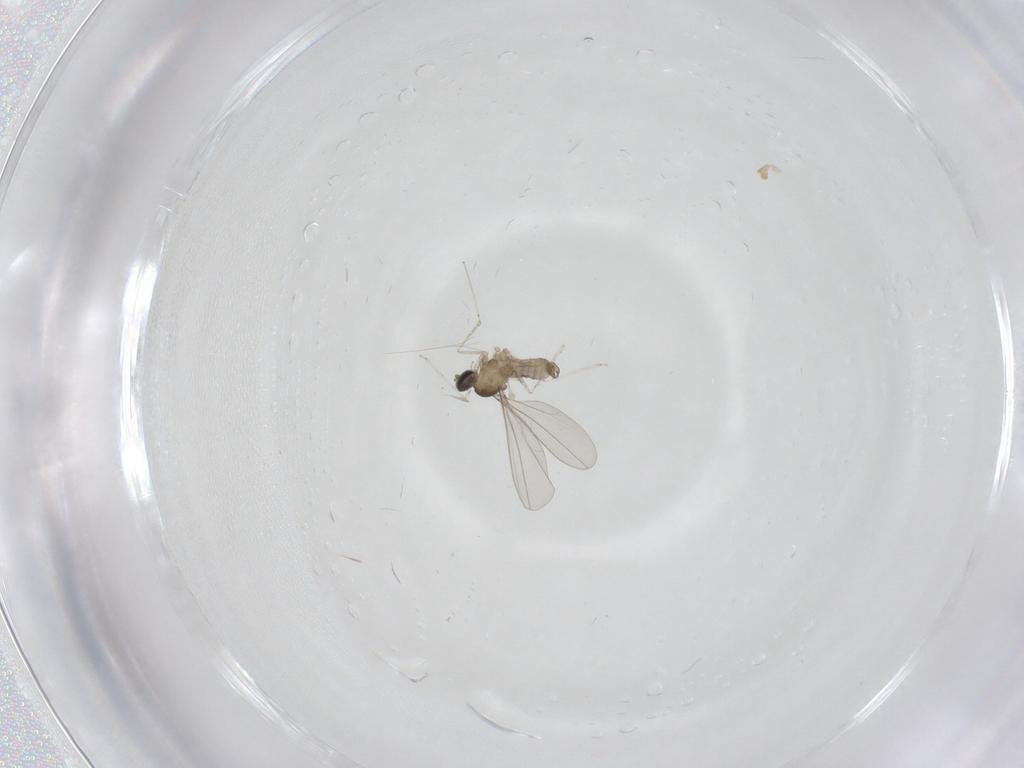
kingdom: Animalia
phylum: Arthropoda
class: Insecta
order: Diptera
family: Cecidomyiidae
